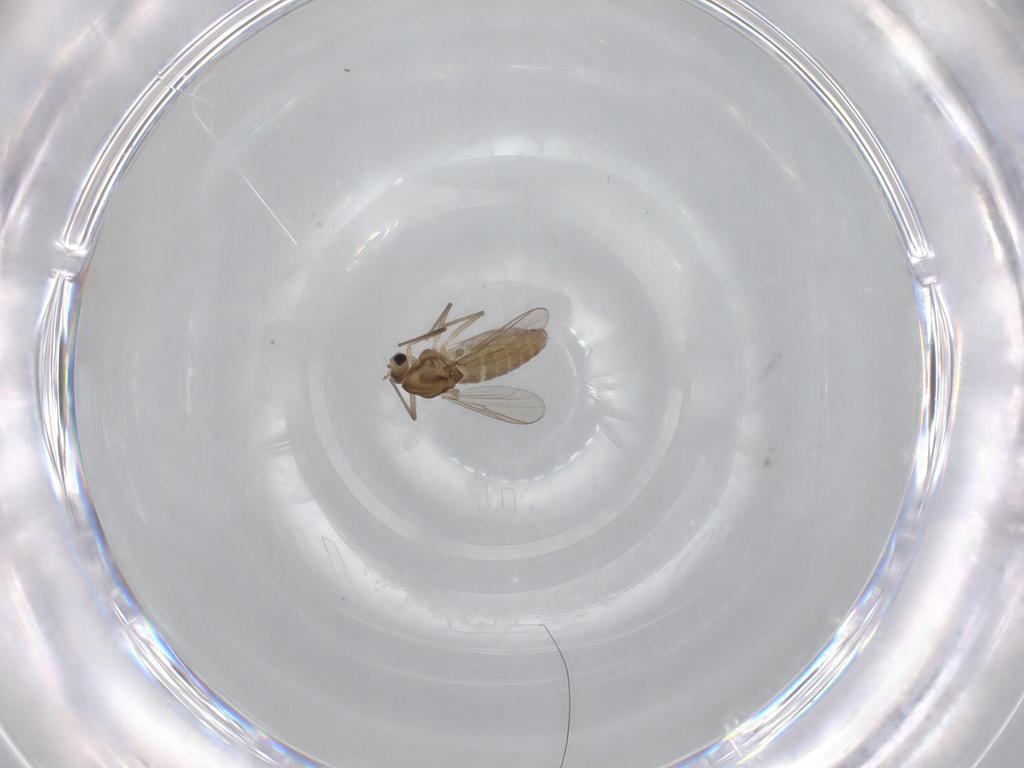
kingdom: Animalia
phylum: Arthropoda
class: Insecta
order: Diptera
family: Chironomidae
